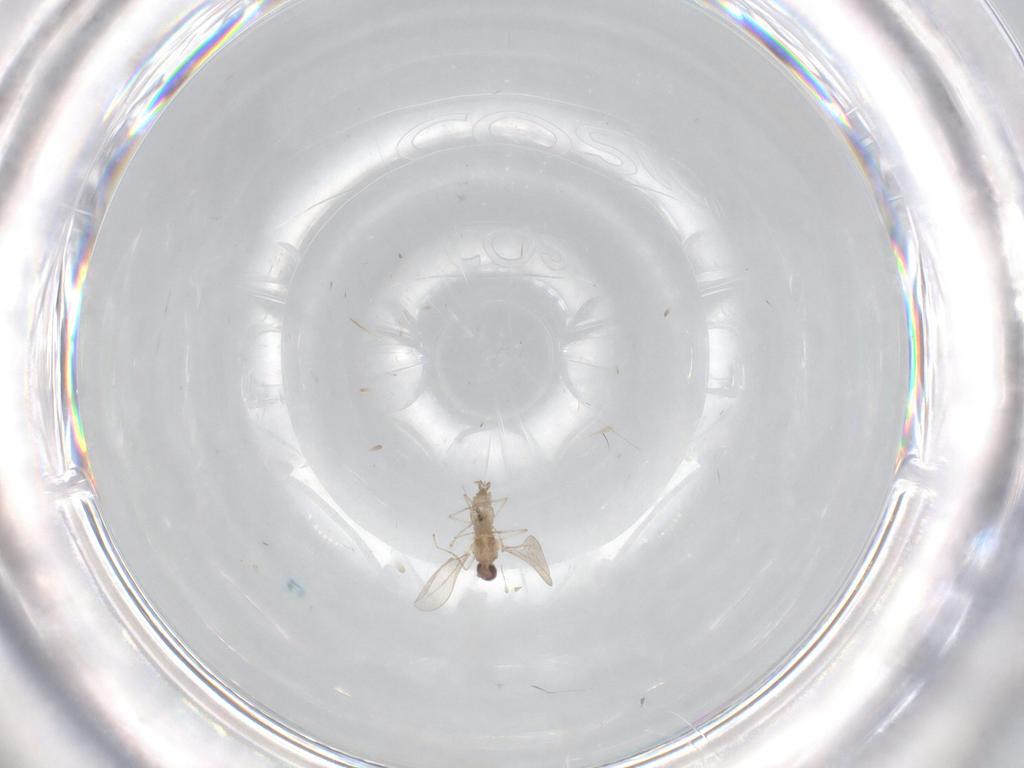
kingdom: Animalia
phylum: Arthropoda
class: Insecta
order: Diptera
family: Cecidomyiidae
